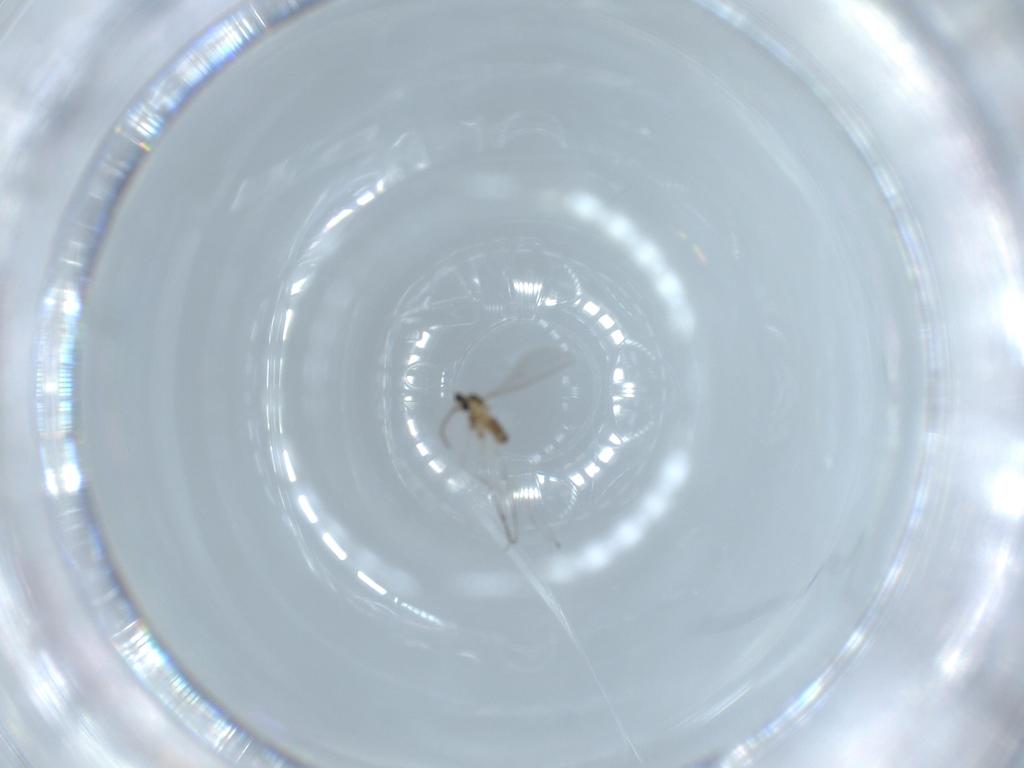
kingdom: Animalia
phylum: Arthropoda
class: Insecta
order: Diptera
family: Cecidomyiidae
